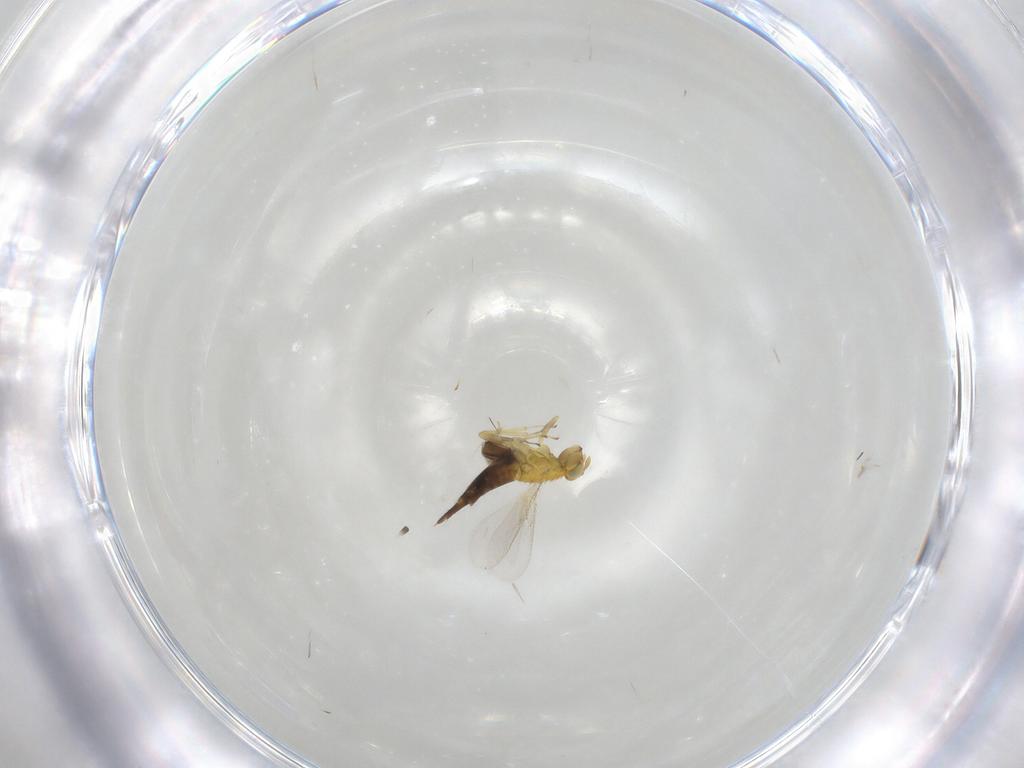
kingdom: Animalia
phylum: Arthropoda
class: Insecta
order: Hymenoptera
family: Aphelinidae
